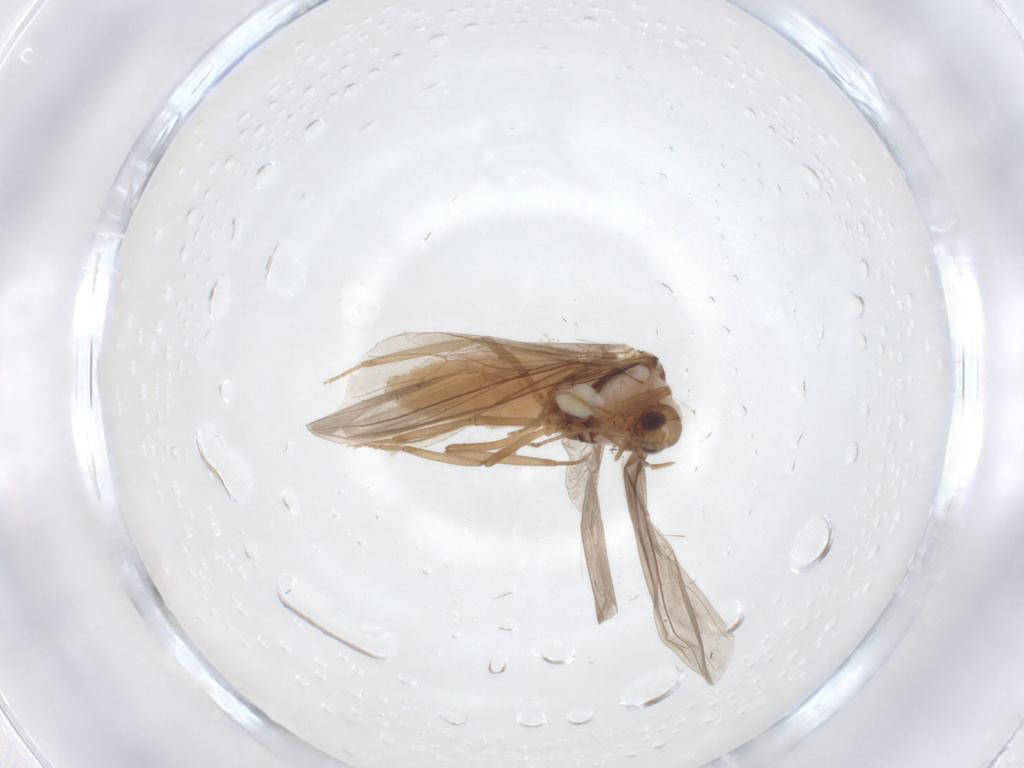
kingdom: Animalia
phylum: Arthropoda
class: Insecta
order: Neuroptera
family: Coniopterygidae
